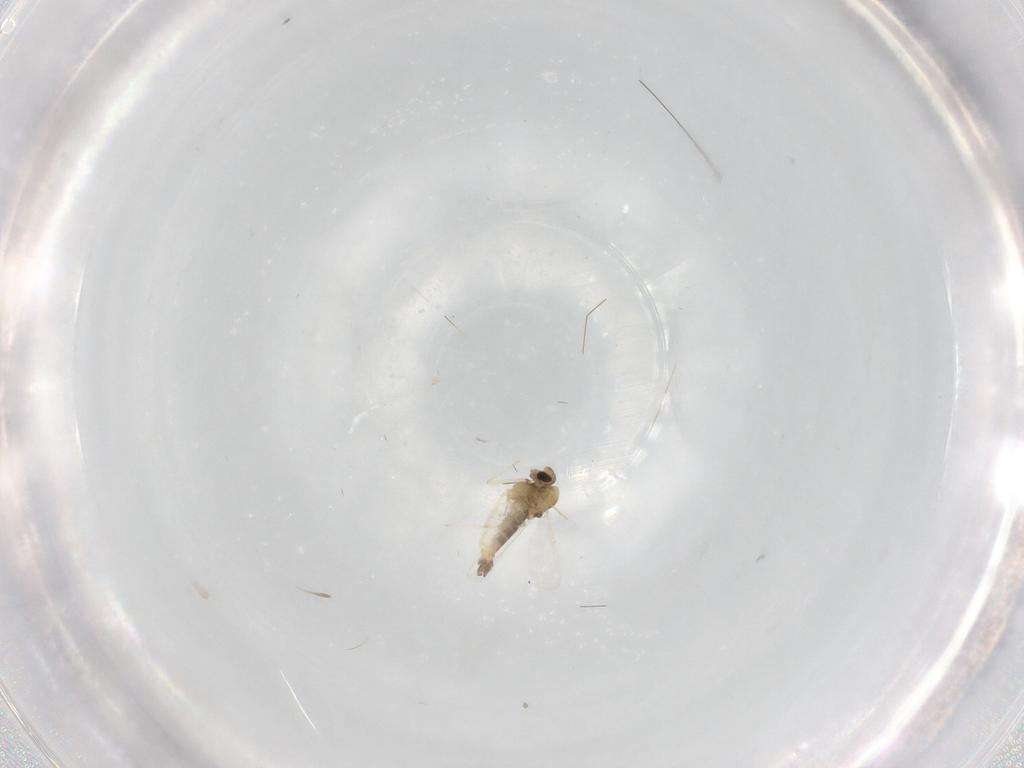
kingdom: Animalia
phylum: Arthropoda
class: Insecta
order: Diptera
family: Chironomidae
